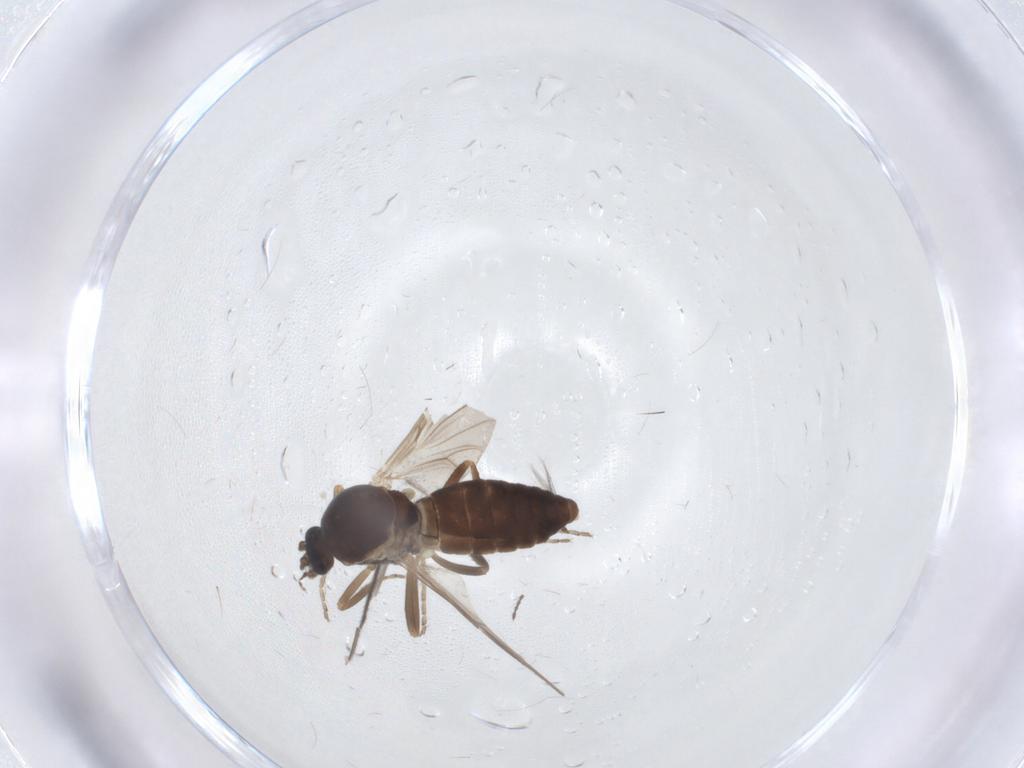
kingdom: Animalia
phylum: Arthropoda
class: Insecta
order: Diptera
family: Ceratopogonidae
